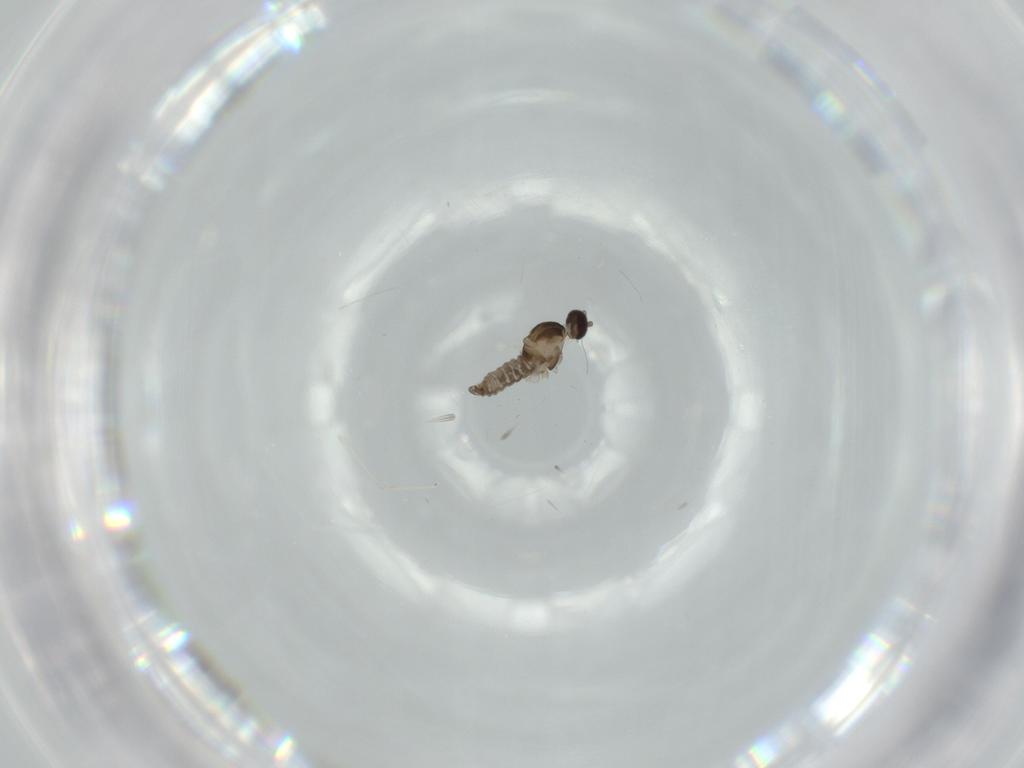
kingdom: Animalia
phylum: Arthropoda
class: Insecta
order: Diptera
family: Cecidomyiidae
